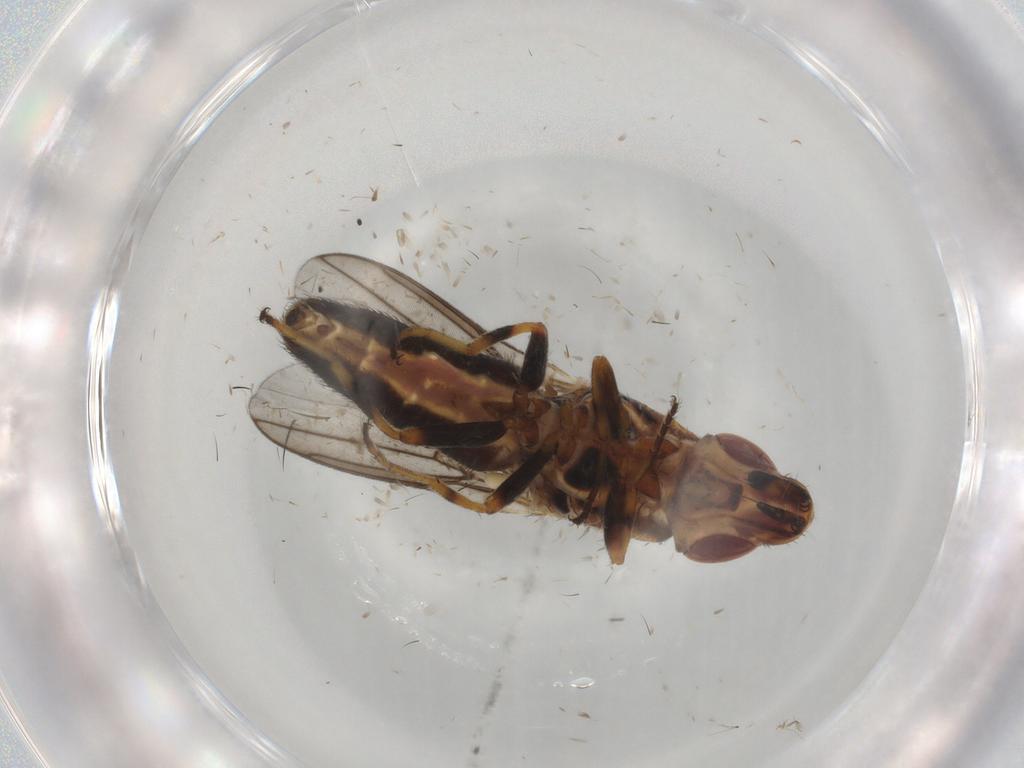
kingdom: Animalia
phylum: Arthropoda
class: Insecta
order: Diptera
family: Chloropidae
